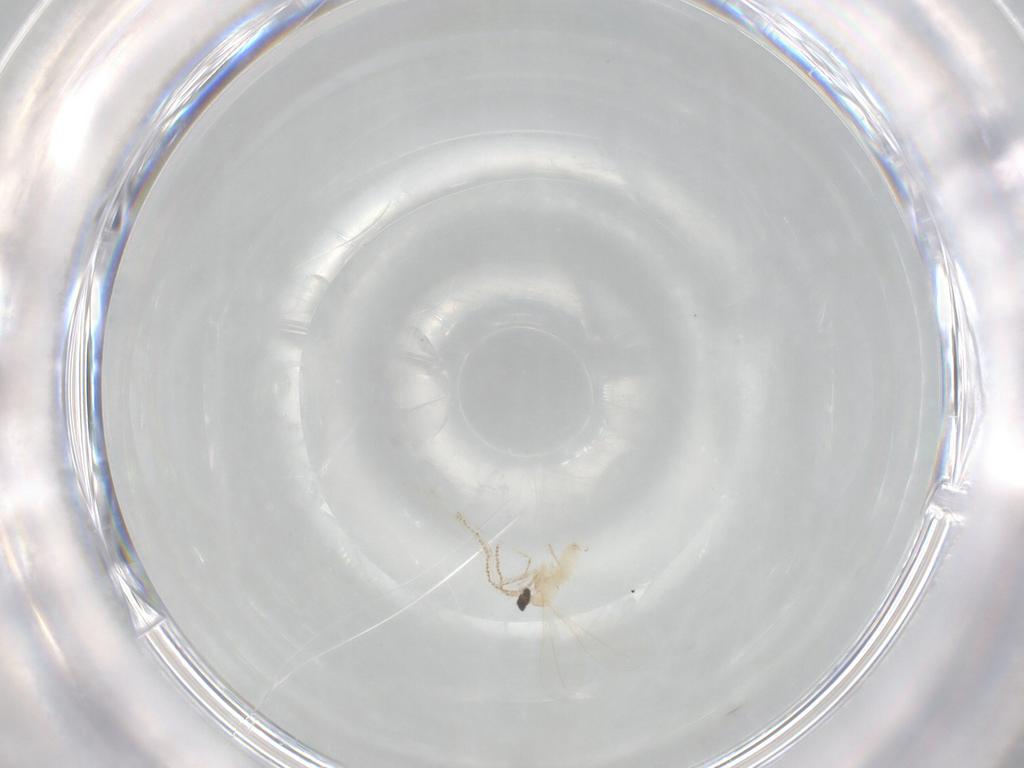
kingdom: Animalia
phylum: Arthropoda
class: Insecta
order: Diptera
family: Cecidomyiidae
